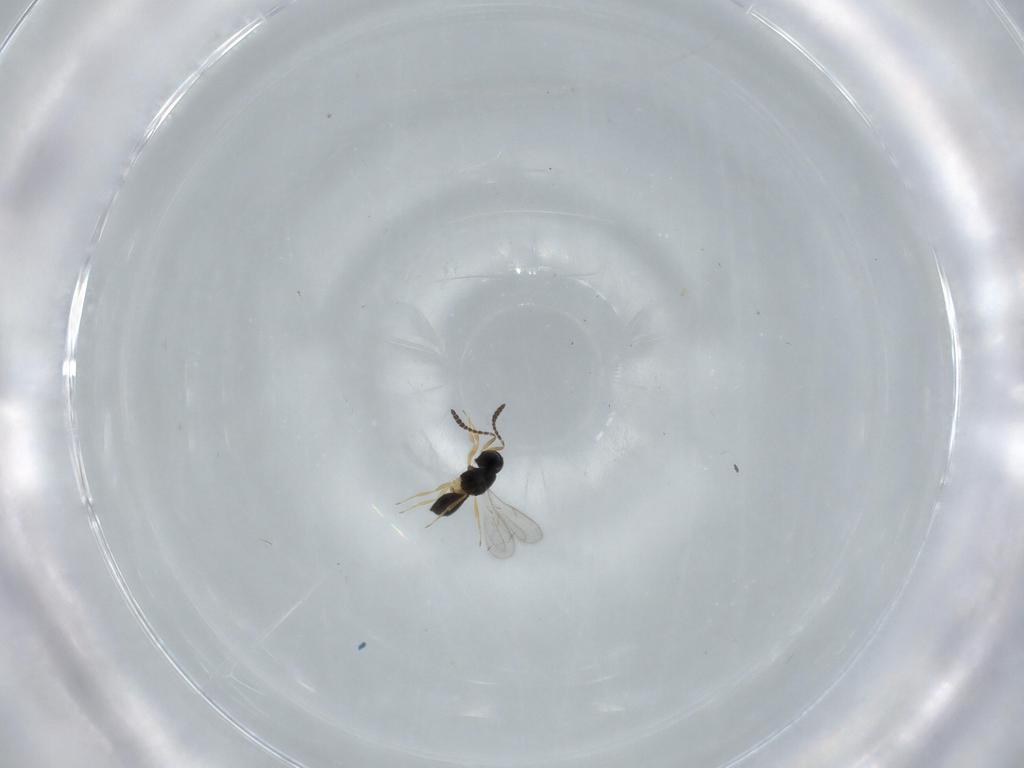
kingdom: Animalia
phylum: Arthropoda
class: Insecta
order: Hymenoptera
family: Scelionidae
